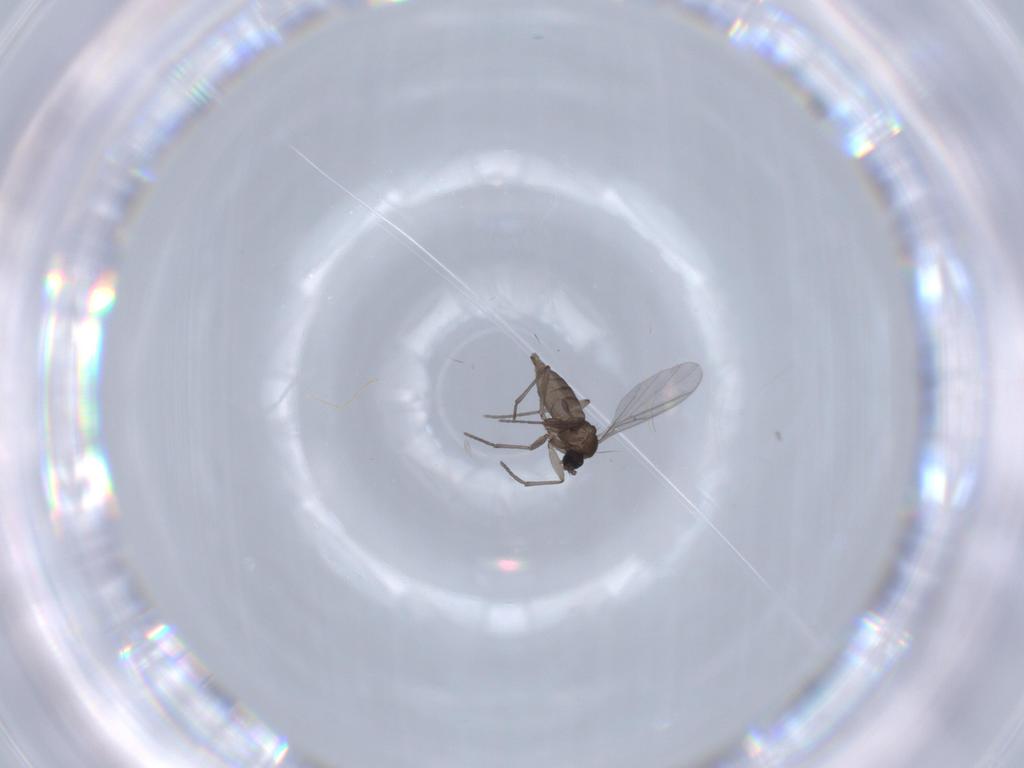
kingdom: Animalia
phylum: Arthropoda
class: Insecta
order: Diptera
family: Sciaridae
